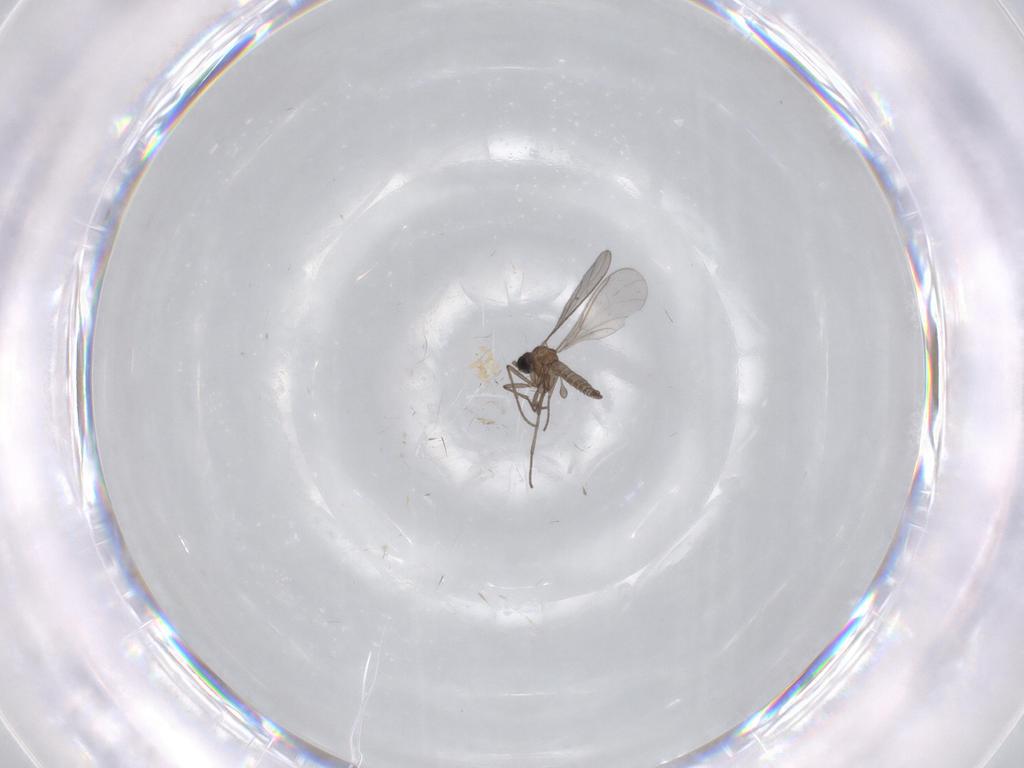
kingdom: Animalia
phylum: Arthropoda
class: Insecta
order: Diptera
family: Sciaridae
